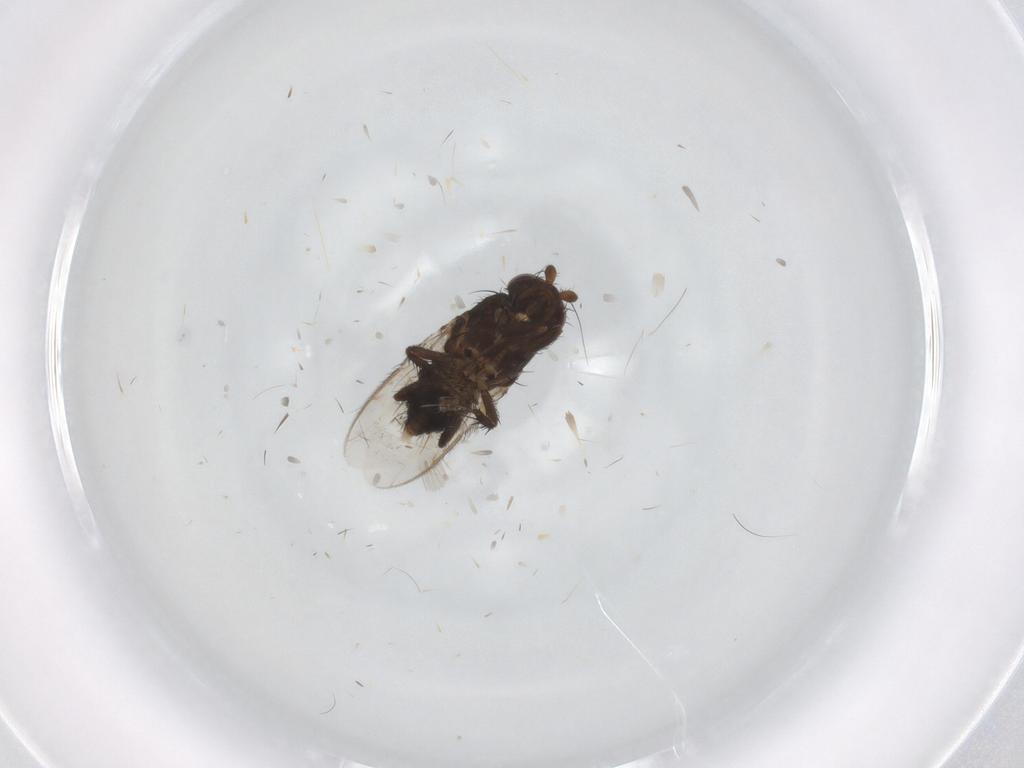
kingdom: Animalia
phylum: Arthropoda
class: Insecta
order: Diptera
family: Sphaeroceridae
